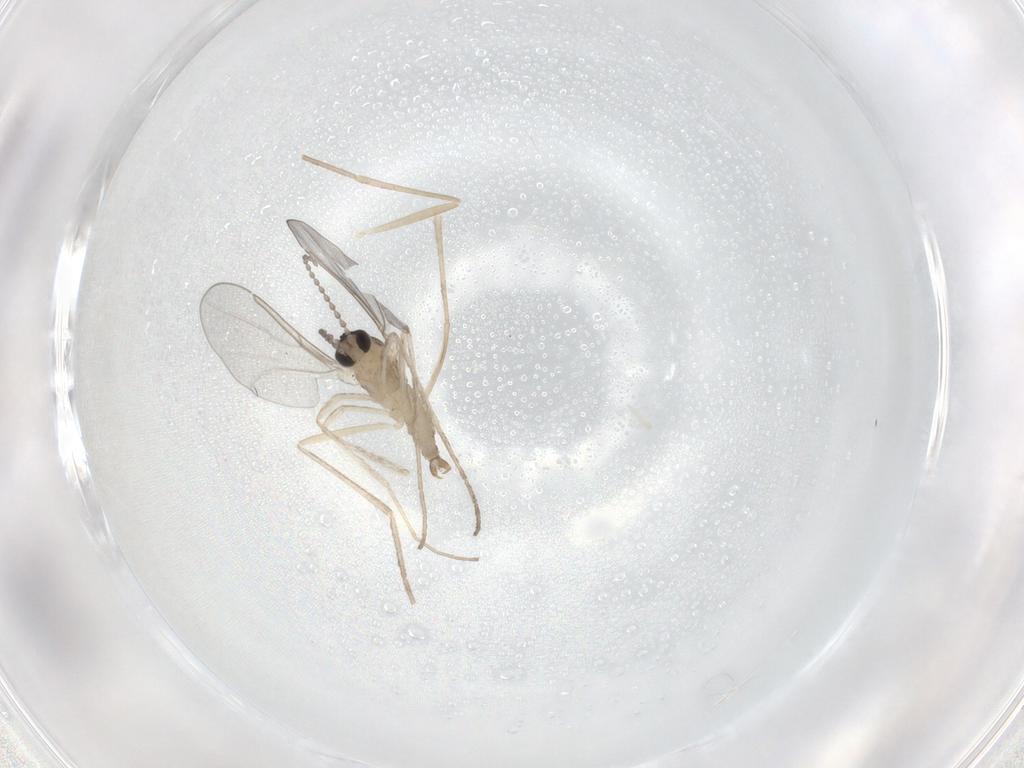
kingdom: Animalia
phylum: Arthropoda
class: Insecta
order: Diptera
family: Cecidomyiidae
